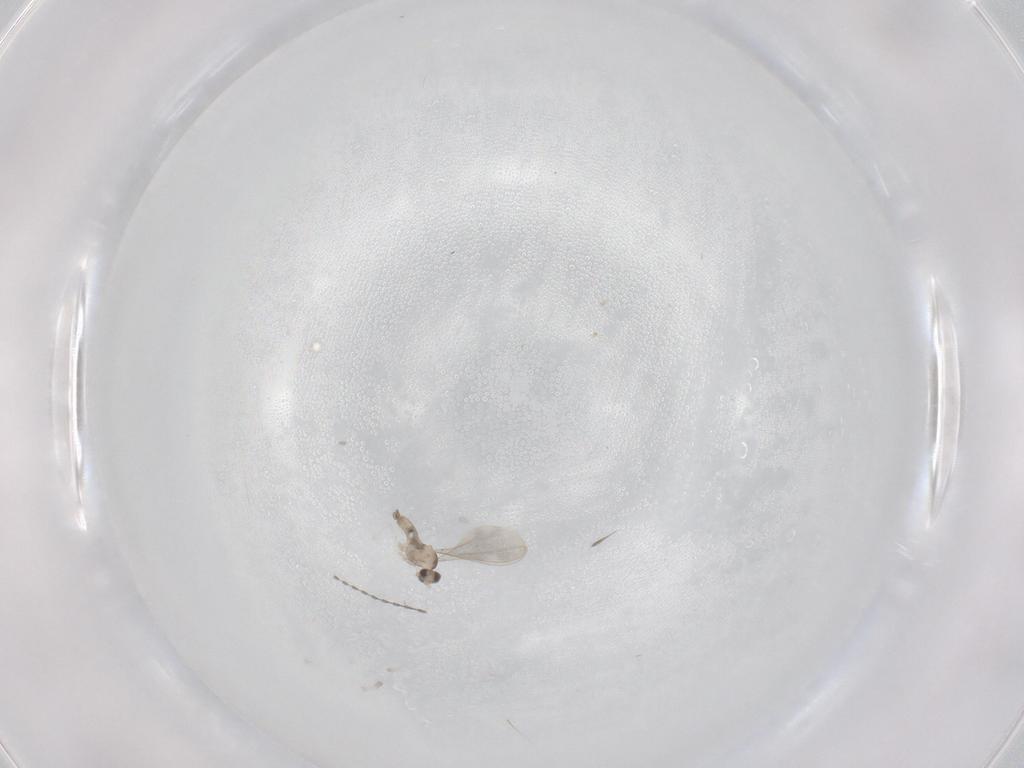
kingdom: Animalia
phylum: Arthropoda
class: Insecta
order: Diptera
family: Cecidomyiidae
